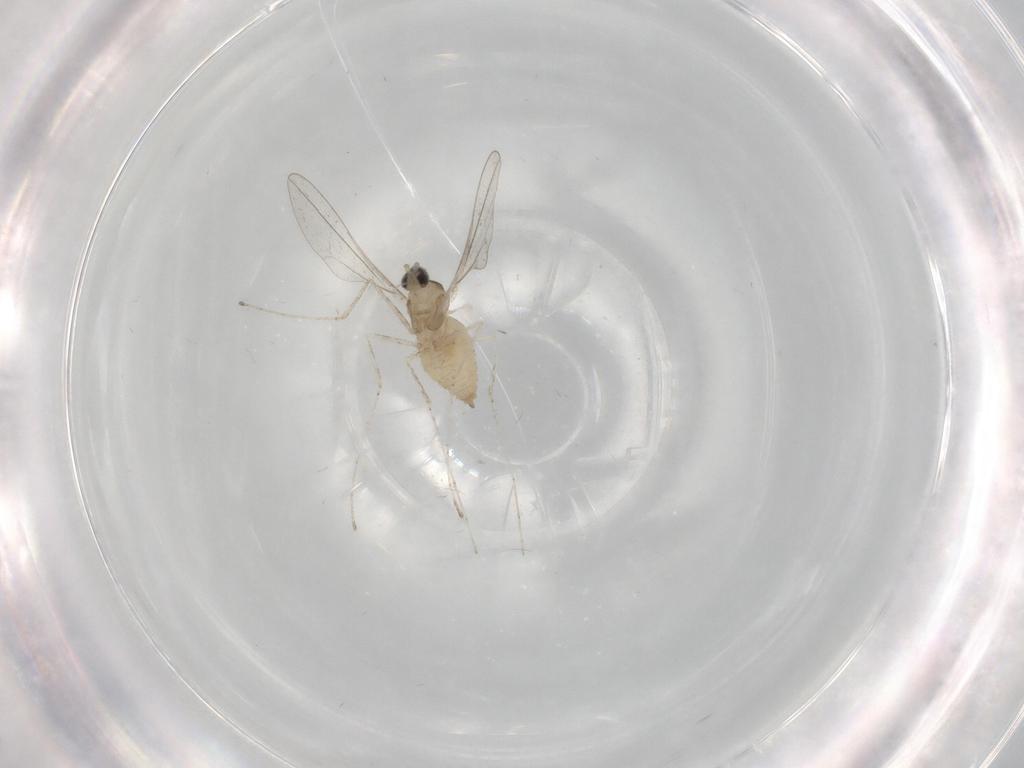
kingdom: Animalia
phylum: Arthropoda
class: Insecta
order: Diptera
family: Cecidomyiidae
